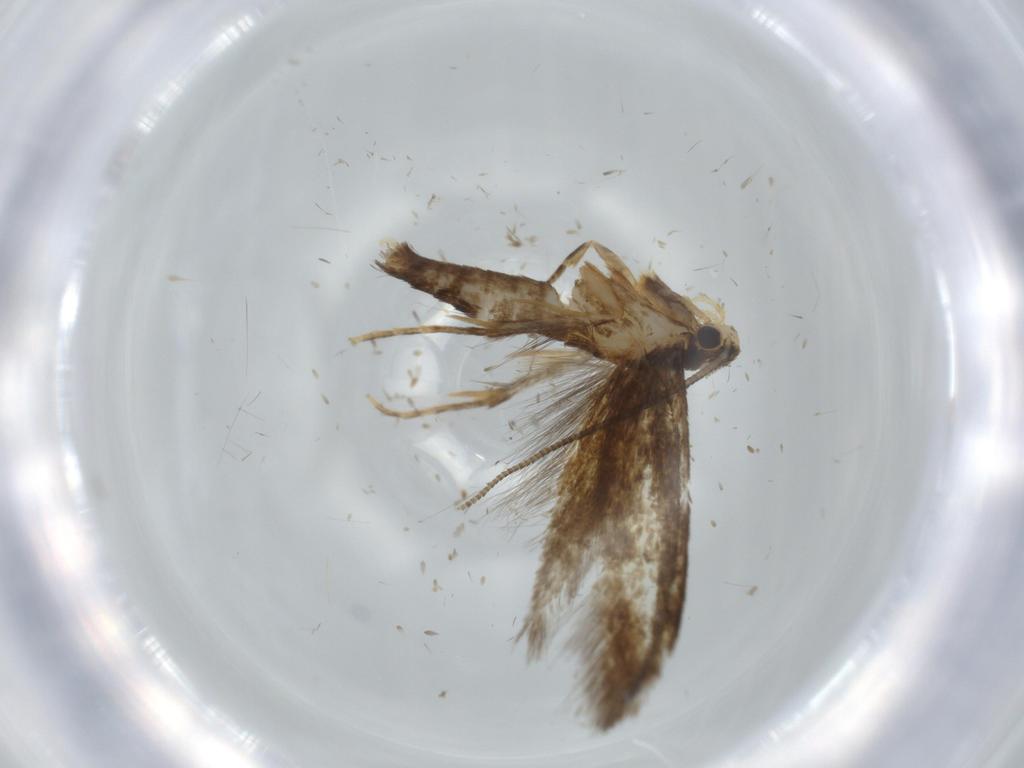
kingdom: Animalia
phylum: Arthropoda
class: Insecta
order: Lepidoptera
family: Tineidae
